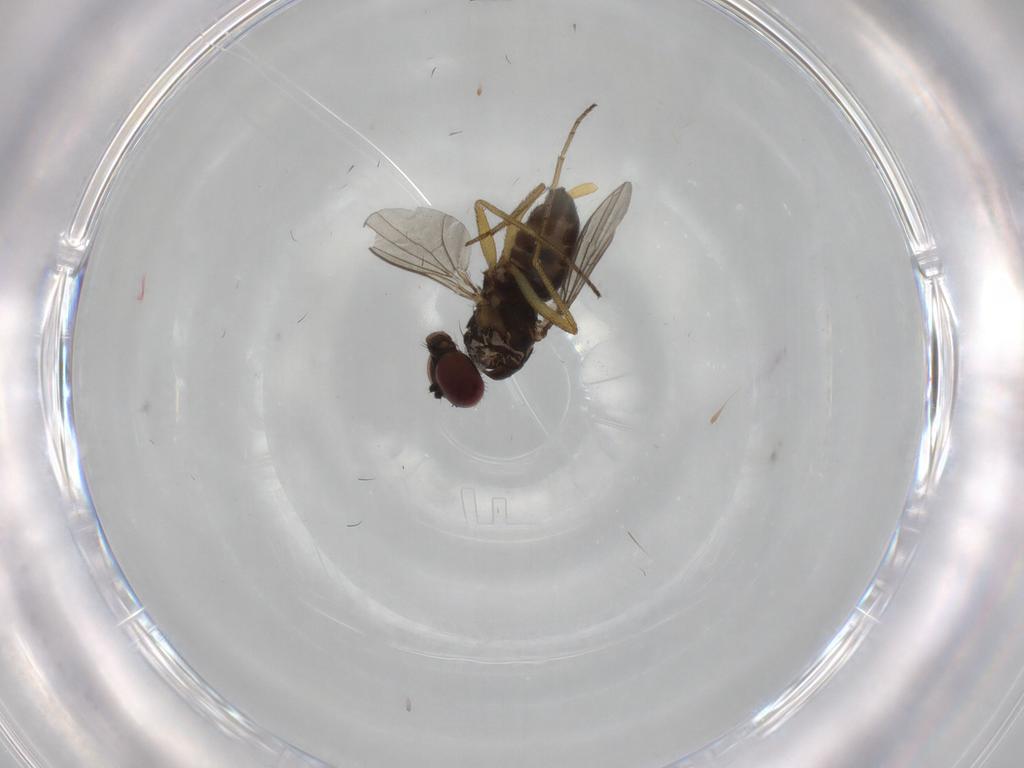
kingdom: Animalia
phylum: Arthropoda
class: Insecta
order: Diptera
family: Dolichopodidae
